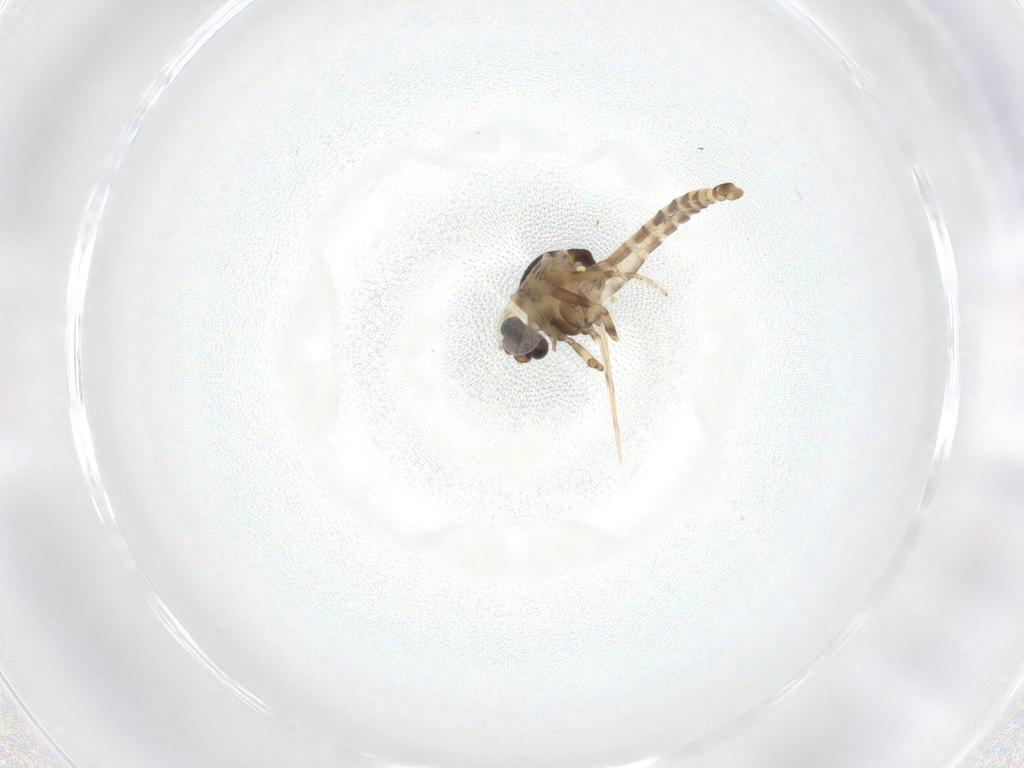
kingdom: Animalia
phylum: Arthropoda
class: Insecta
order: Diptera
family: Cecidomyiidae
